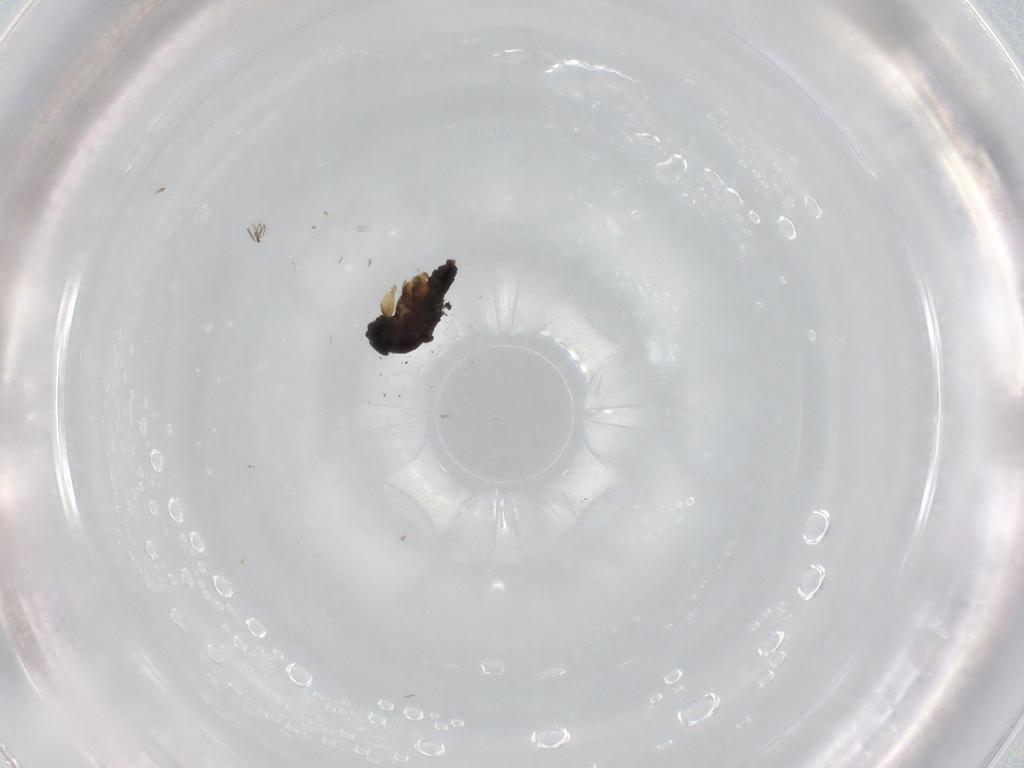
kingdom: Animalia
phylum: Arthropoda
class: Insecta
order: Diptera
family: Phoridae
